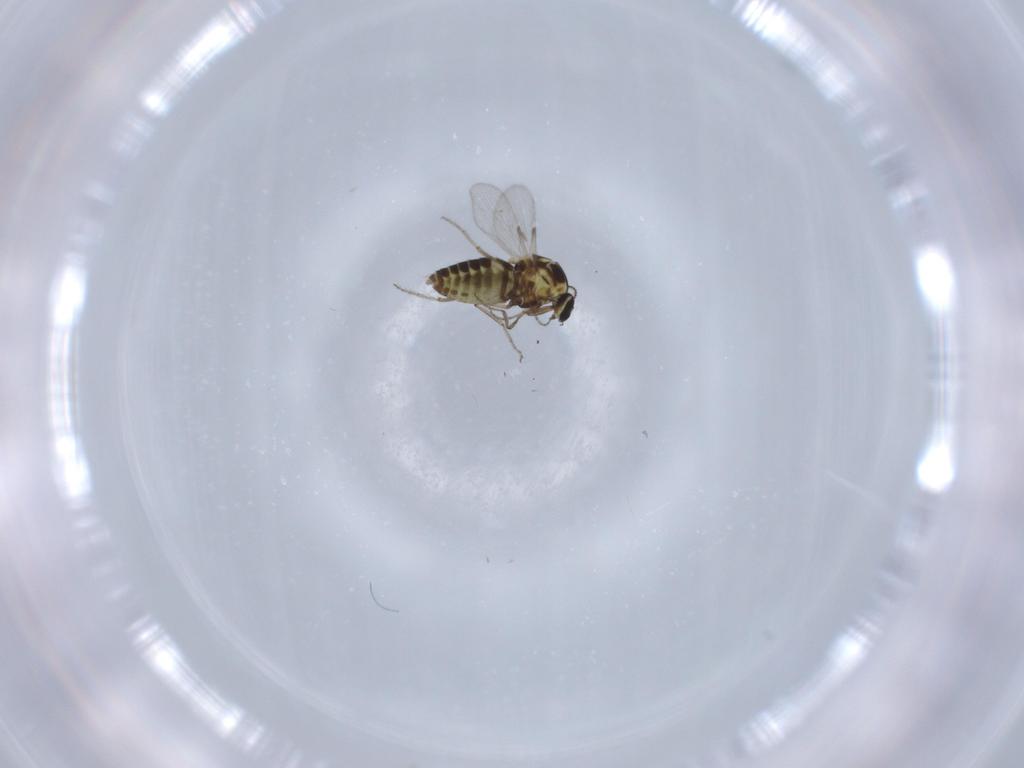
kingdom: Animalia
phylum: Arthropoda
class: Insecta
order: Diptera
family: Ceratopogonidae
